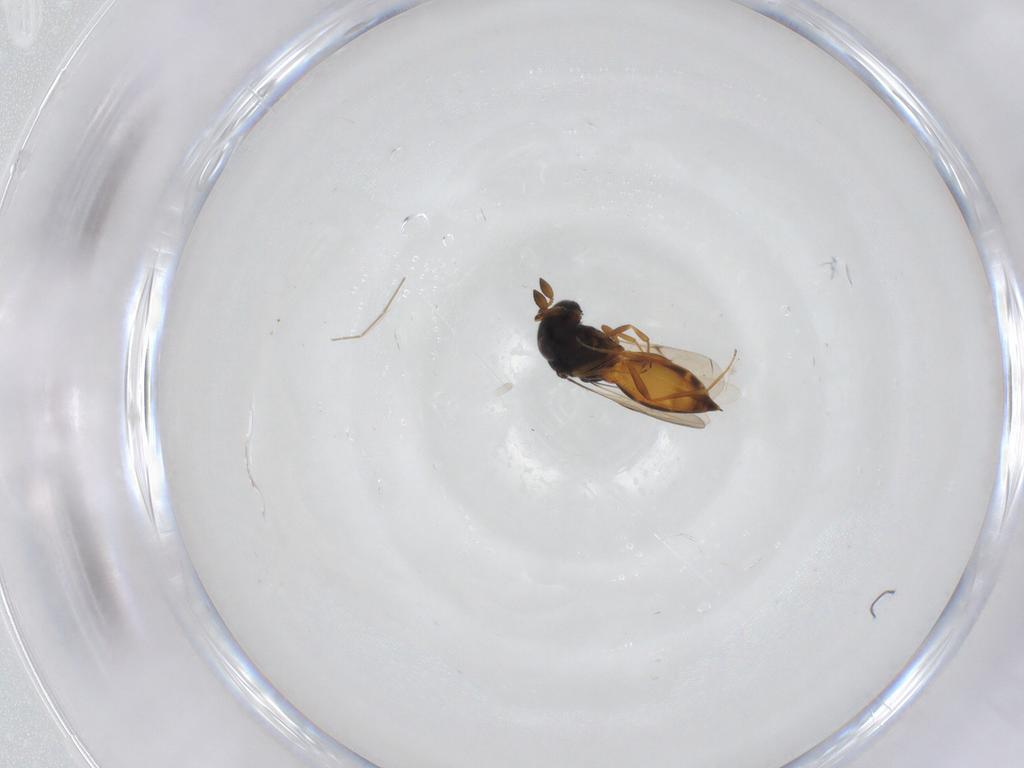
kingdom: Animalia
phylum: Arthropoda
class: Insecta
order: Hymenoptera
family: Scelionidae
